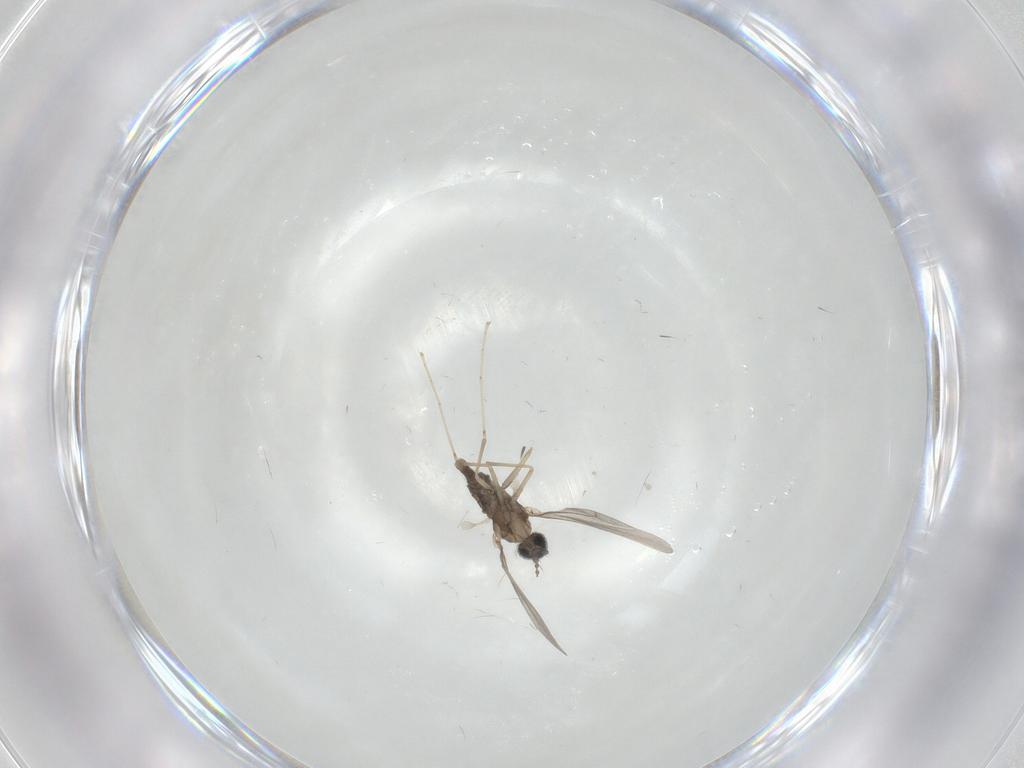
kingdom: Animalia
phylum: Arthropoda
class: Insecta
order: Diptera
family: Cecidomyiidae
